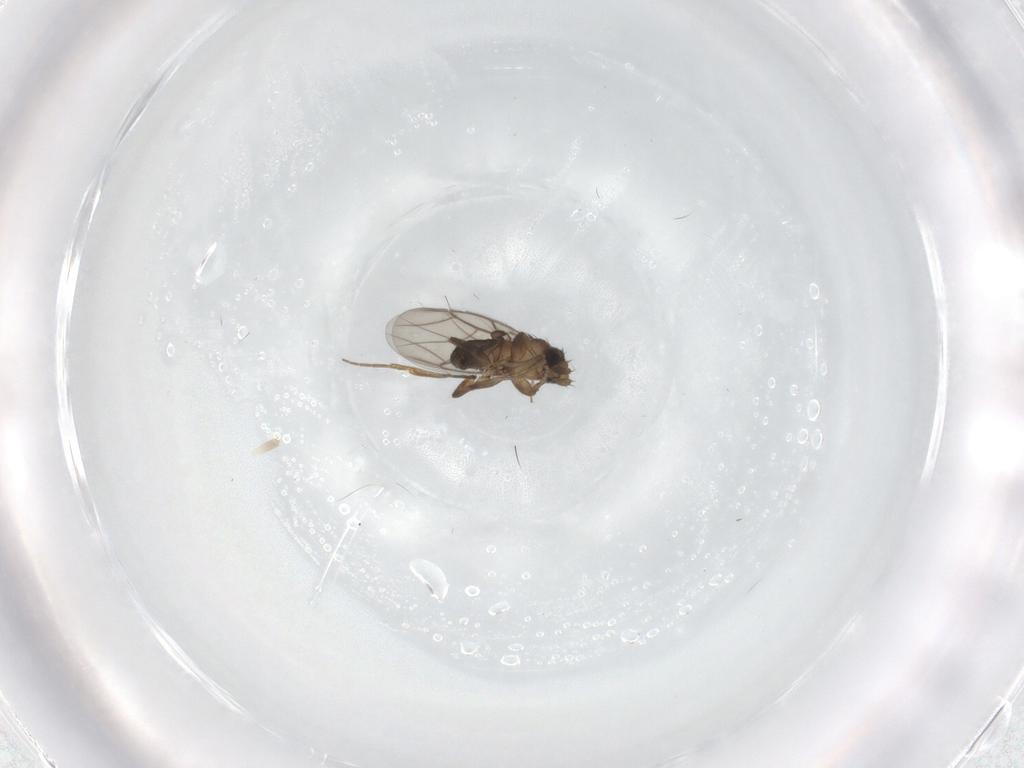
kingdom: Animalia
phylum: Arthropoda
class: Insecta
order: Diptera
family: Phoridae
